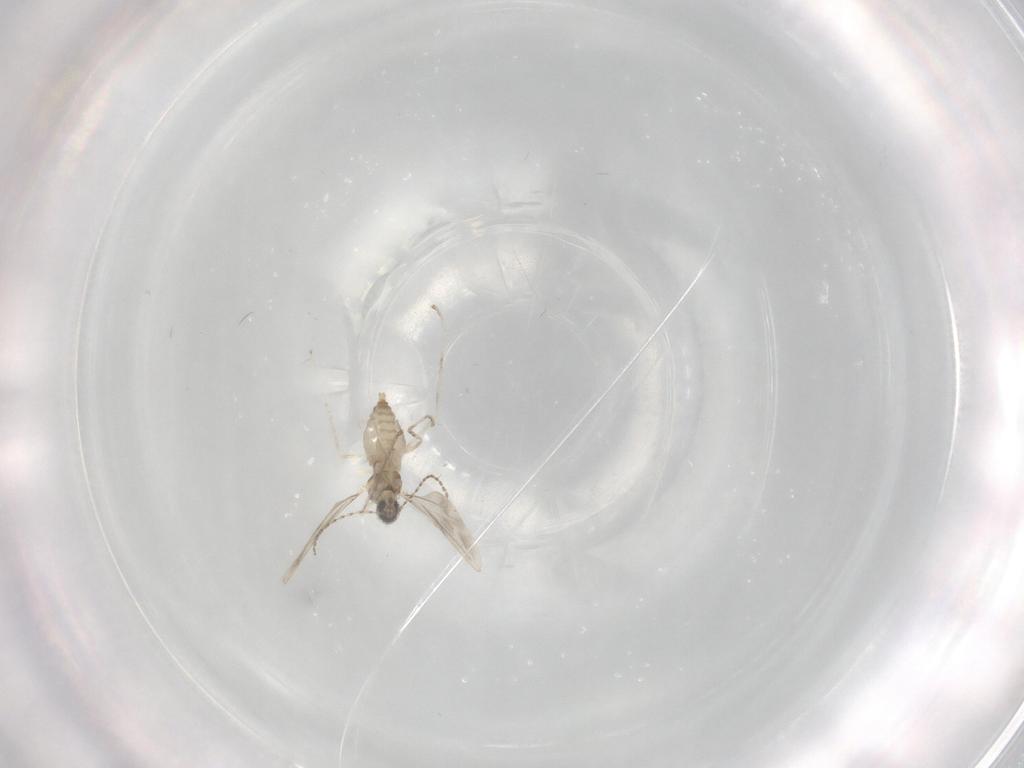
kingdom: Animalia
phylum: Arthropoda
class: Insecta
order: Diptera
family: Cecidomyiidae
